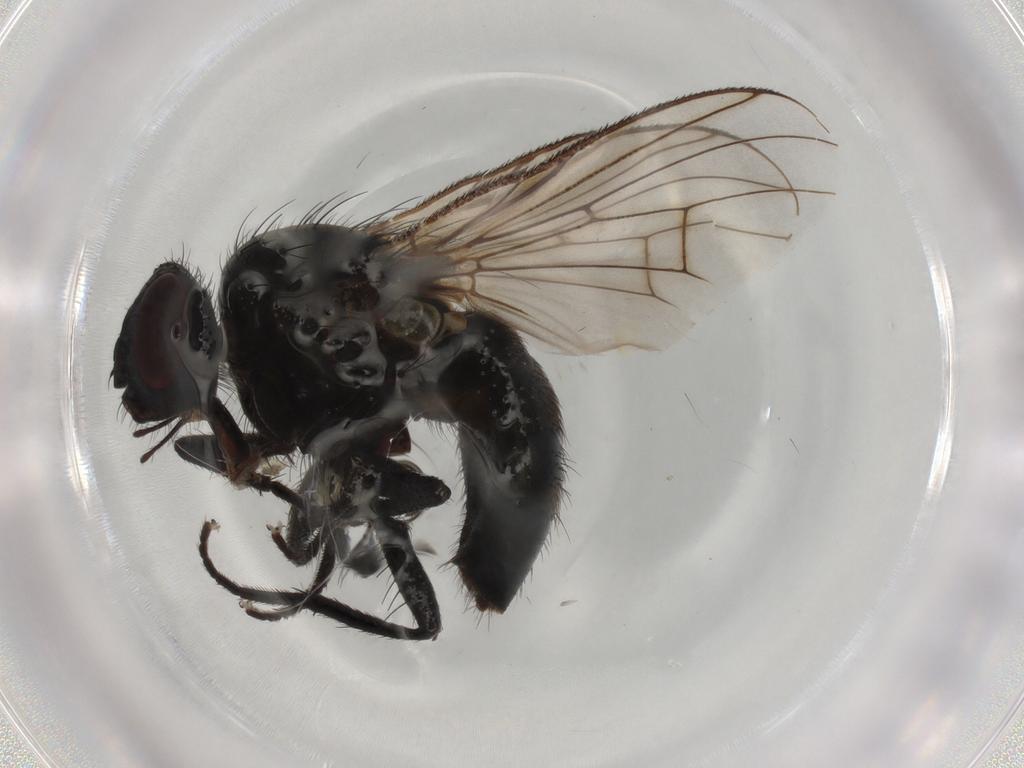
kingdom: Animalia
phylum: Arthropoda
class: Insecta
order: Diptera
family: Muscidae
